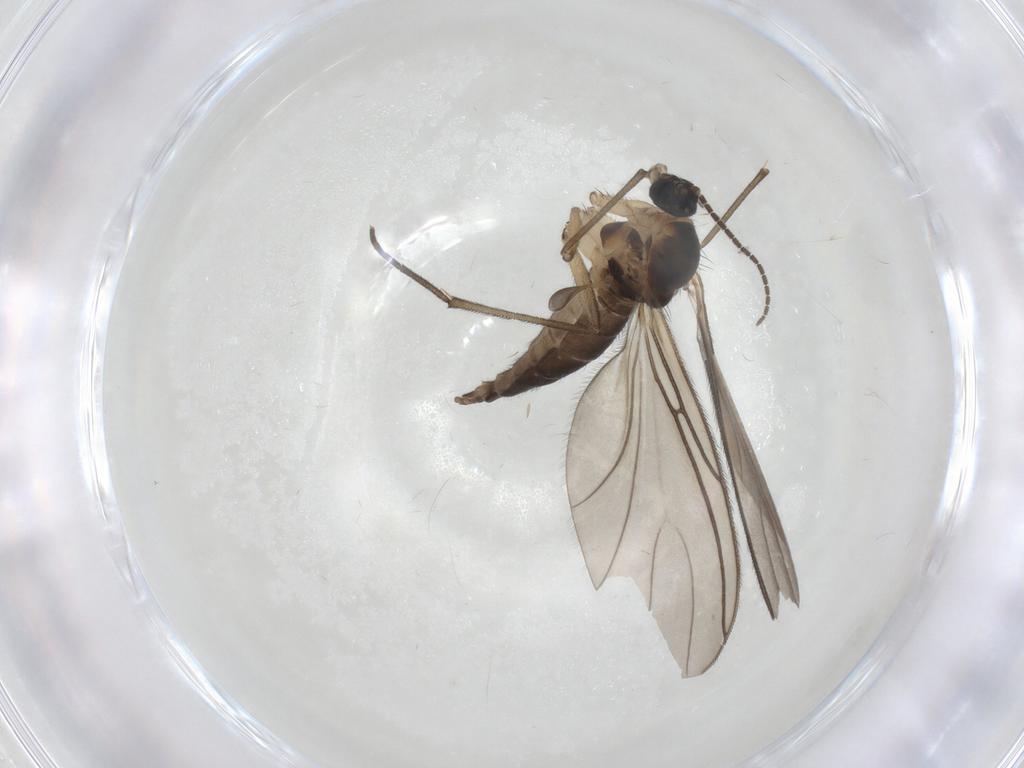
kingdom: Animalia
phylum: Arthropoda
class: Insecta
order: Diptera
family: Sciaridae
